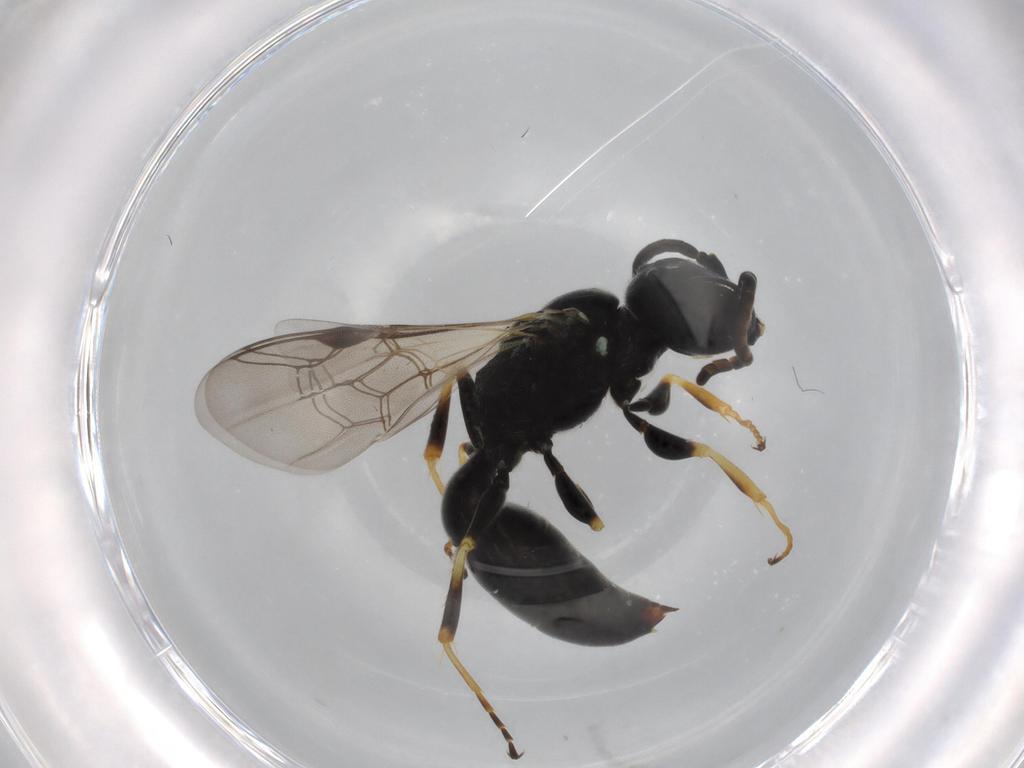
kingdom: Animalia
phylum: Arthropoda
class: Insecta
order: Hymenoptera
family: Crabronidae
